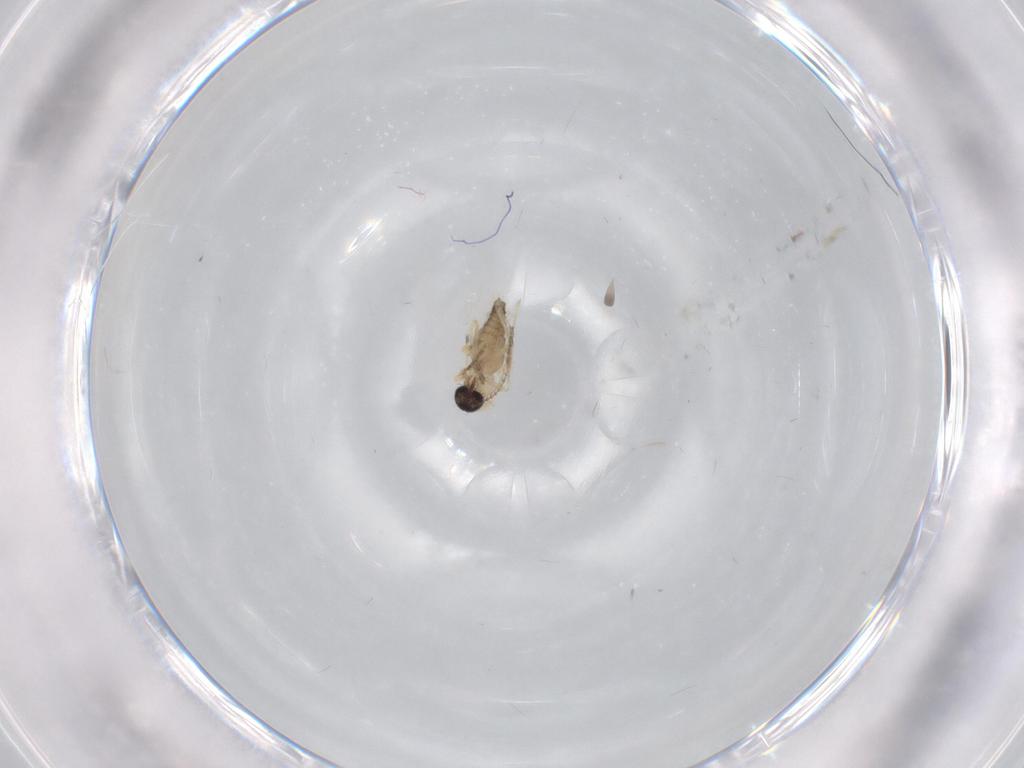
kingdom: Animalia
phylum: Arthropoda
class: Insecta
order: Diptera
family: Ceratopogonidae
